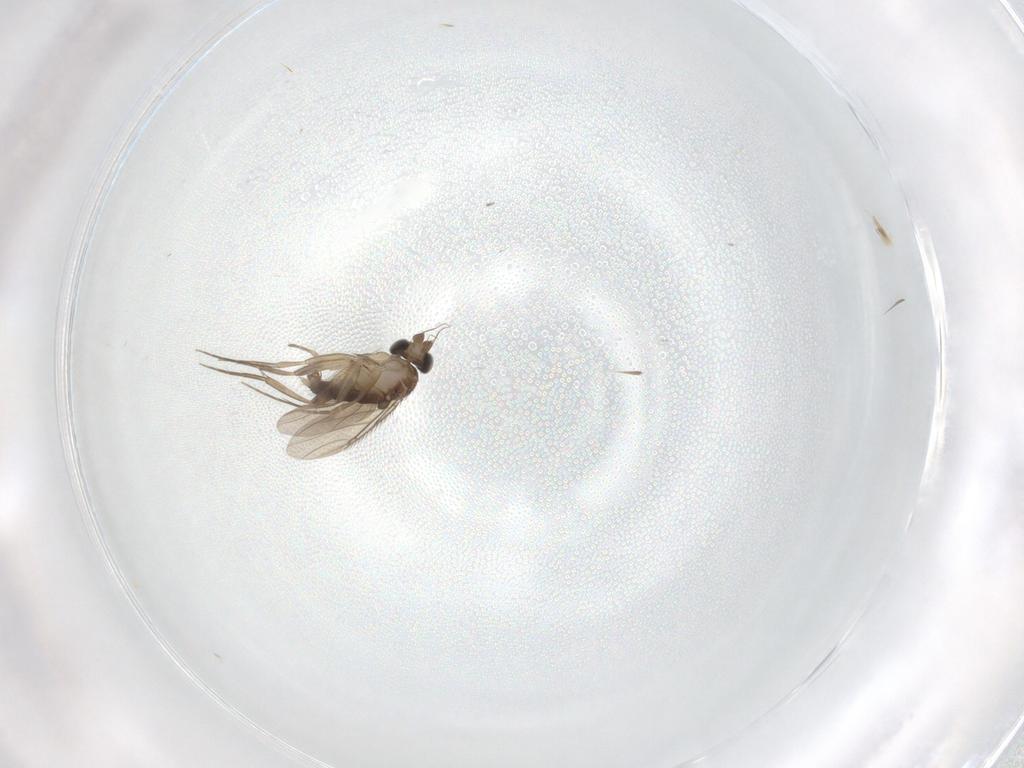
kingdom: Animalia
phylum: Arthropoda
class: Insecta
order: Diptera
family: Phoridae
